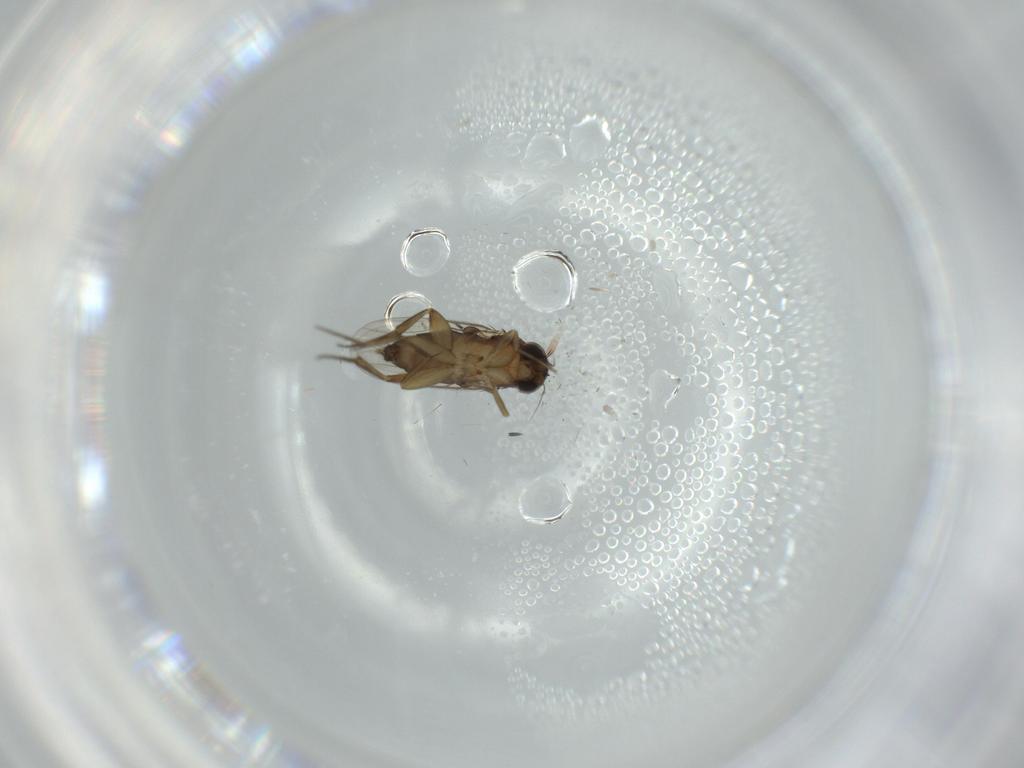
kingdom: Animalia
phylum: Arthropoda
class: Insecta
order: Diptera
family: Phoridae
